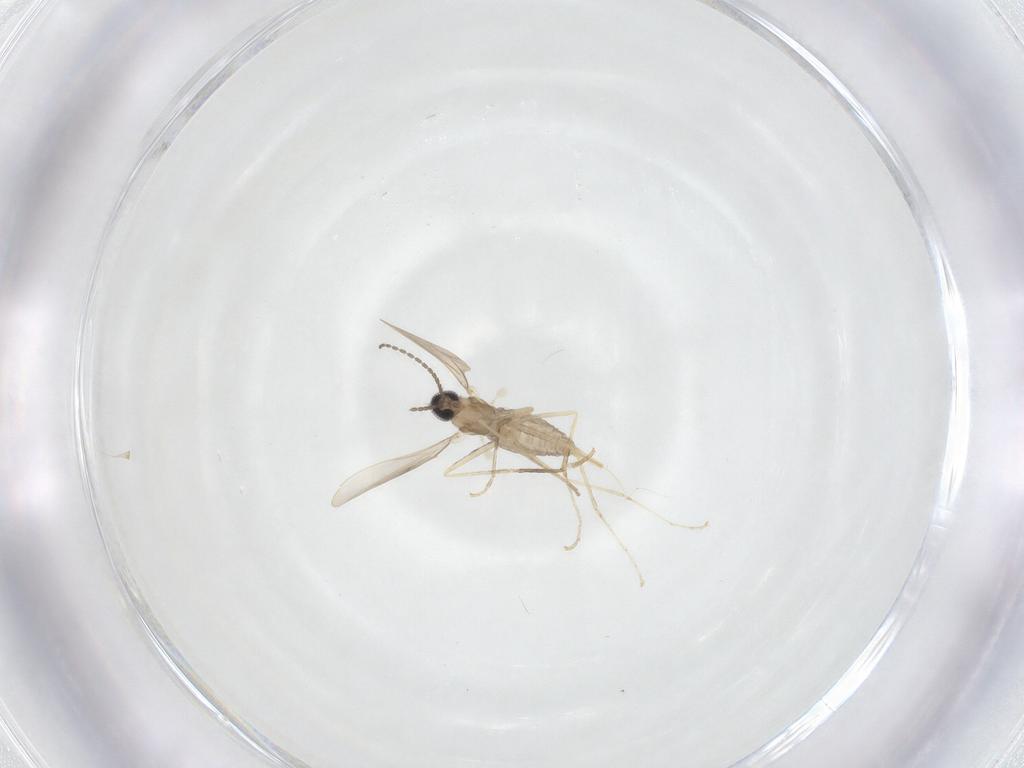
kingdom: Animalia
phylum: Arthropoda
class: Insecta
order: Diptera
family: Cecidomyiidae
